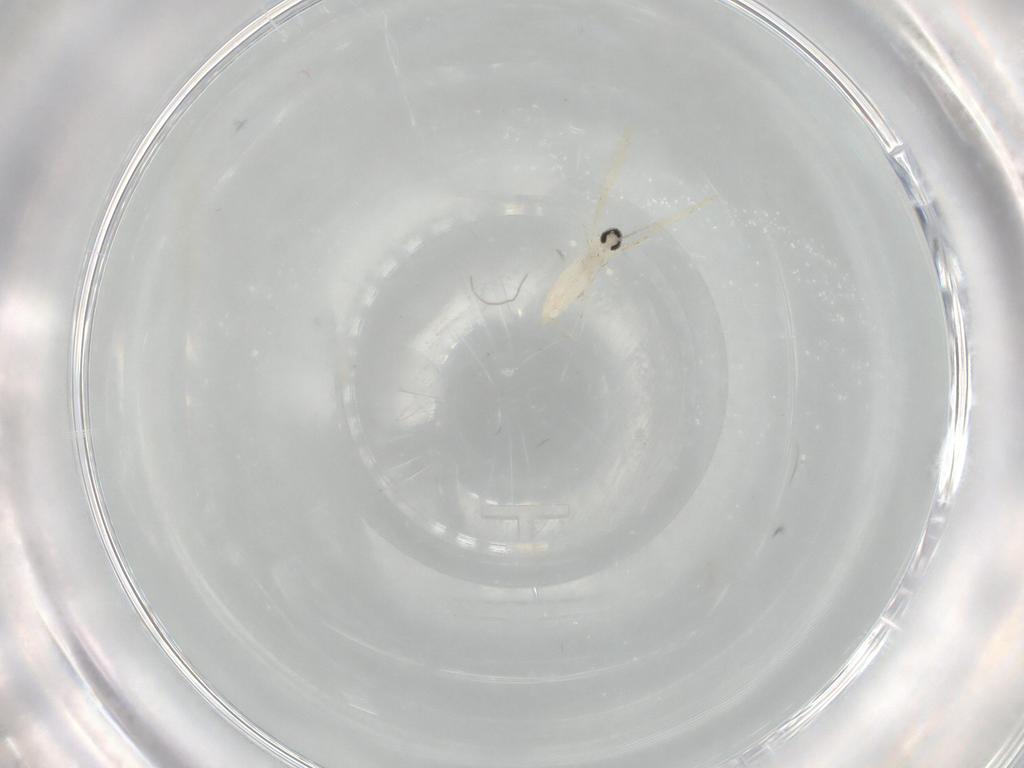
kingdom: Animalia
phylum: Arthropoda
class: Insecta
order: Diptera
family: Cecidomyiidae
